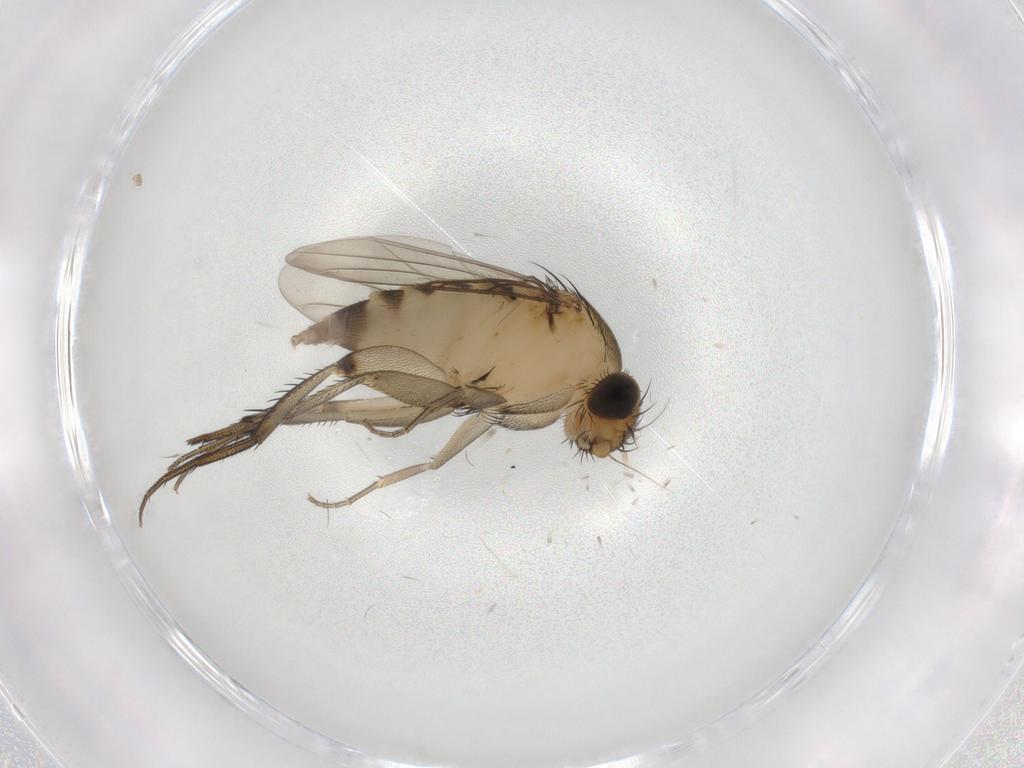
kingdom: Animalia
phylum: Arthropoda
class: Insecta
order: Diptera
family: Phoridae
